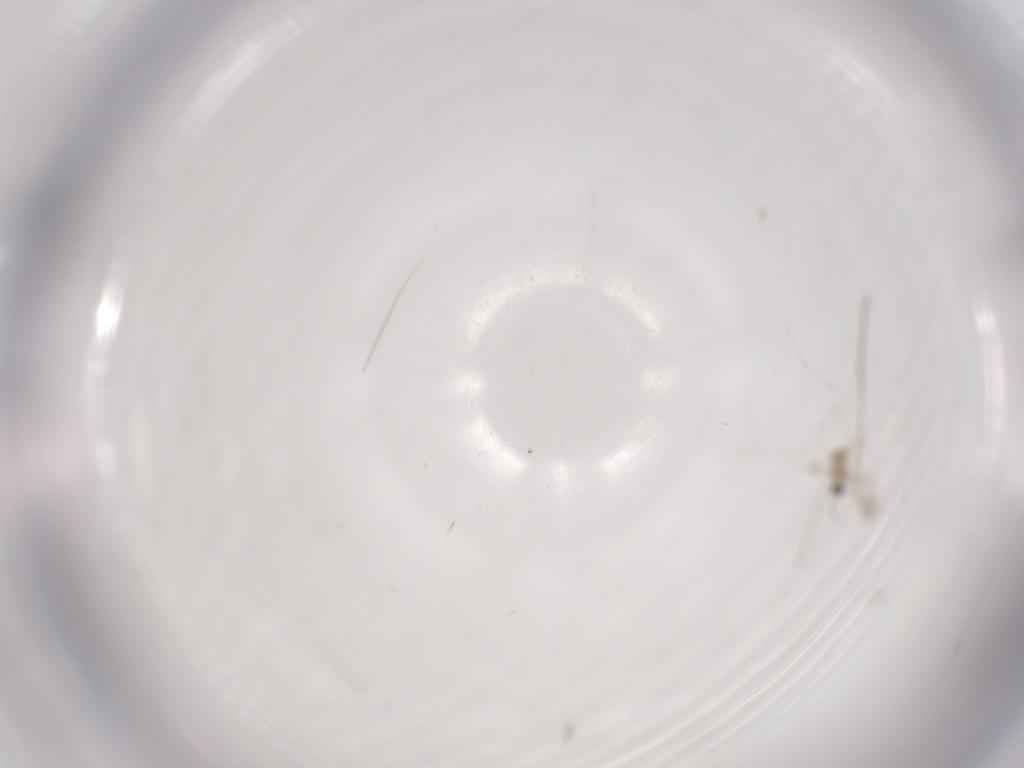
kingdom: Animalia
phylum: Arthropoda
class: Insecta
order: Diptera
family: Cecidomyiidae
